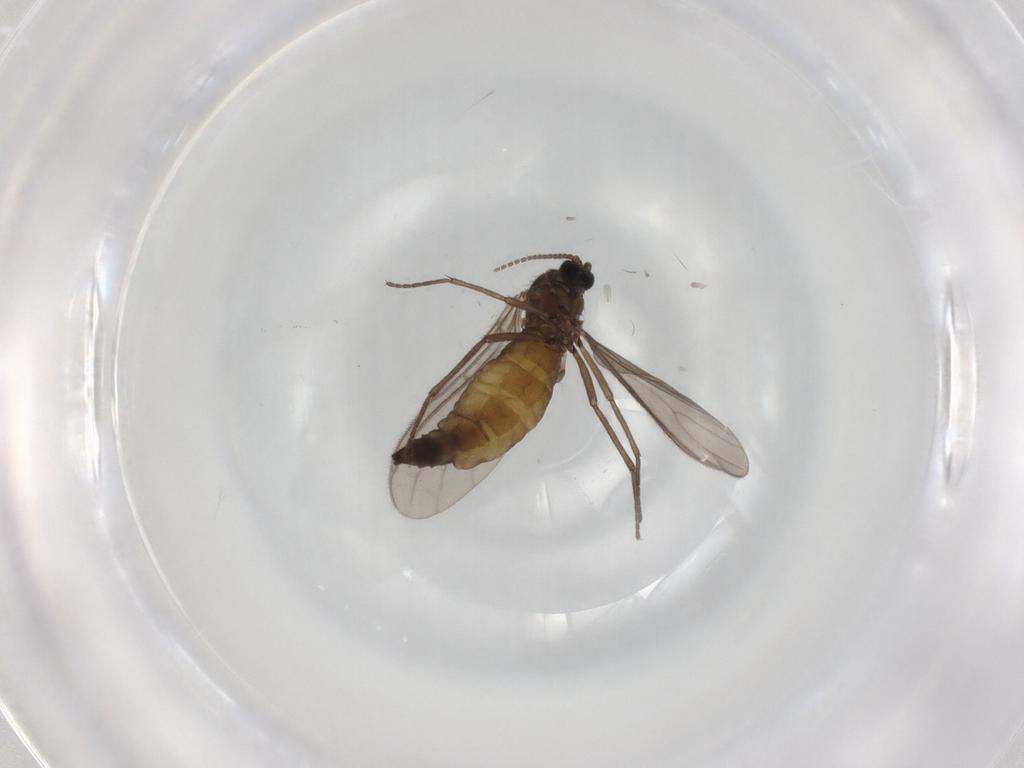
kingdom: Animalia
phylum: Arthropoda
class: Insecta
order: Diptera
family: Sciaridae
